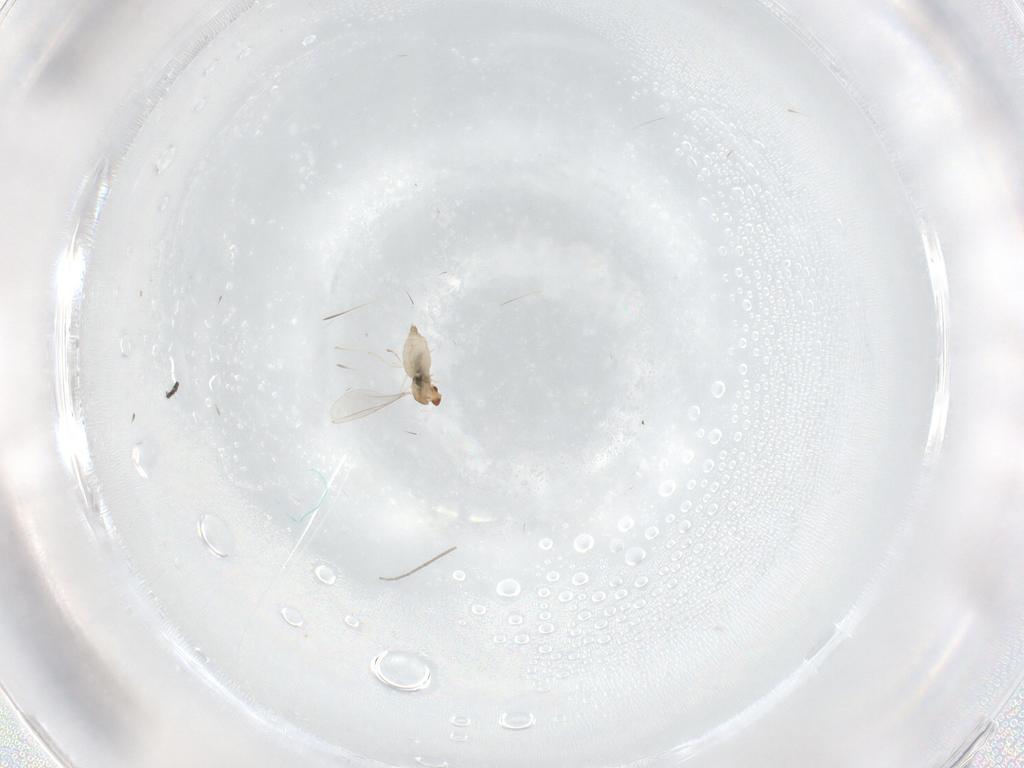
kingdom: Animalia
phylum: Arthropoda
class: Insecta
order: Diptera
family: Cecidomyiidae
